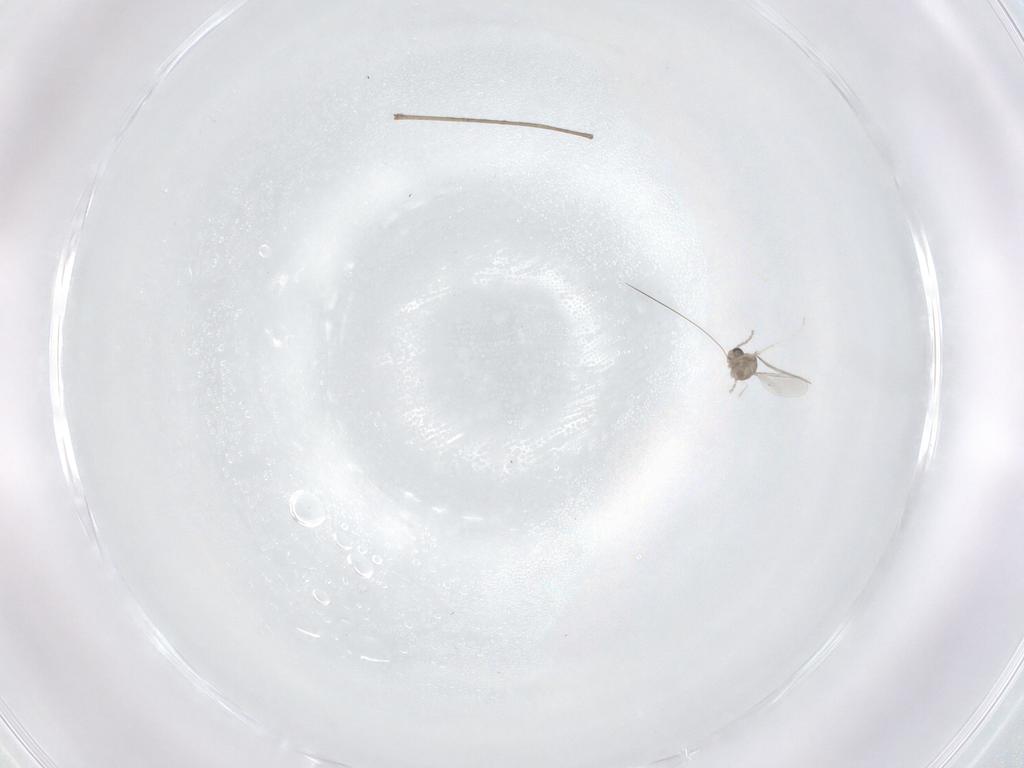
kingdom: Animalia
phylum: Arthropoda
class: Insecta
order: Diptera
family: Cecidomyiidae
